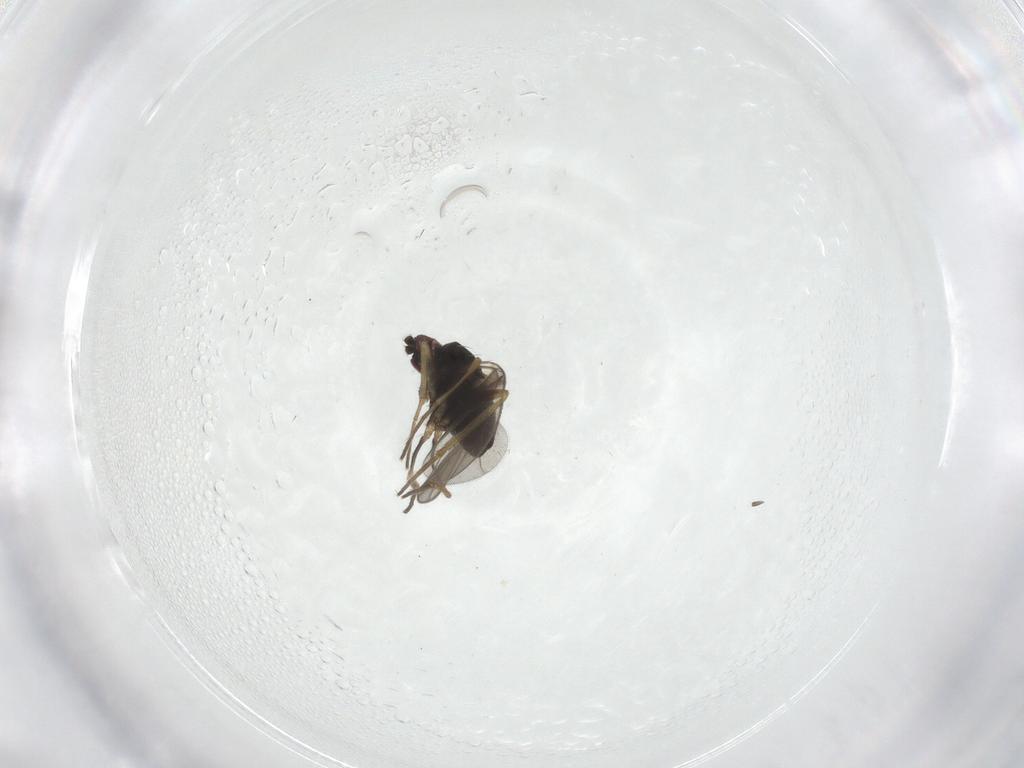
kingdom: Animalia
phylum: Arthropoda
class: Insecta
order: Diptera
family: Dolichopodidae
